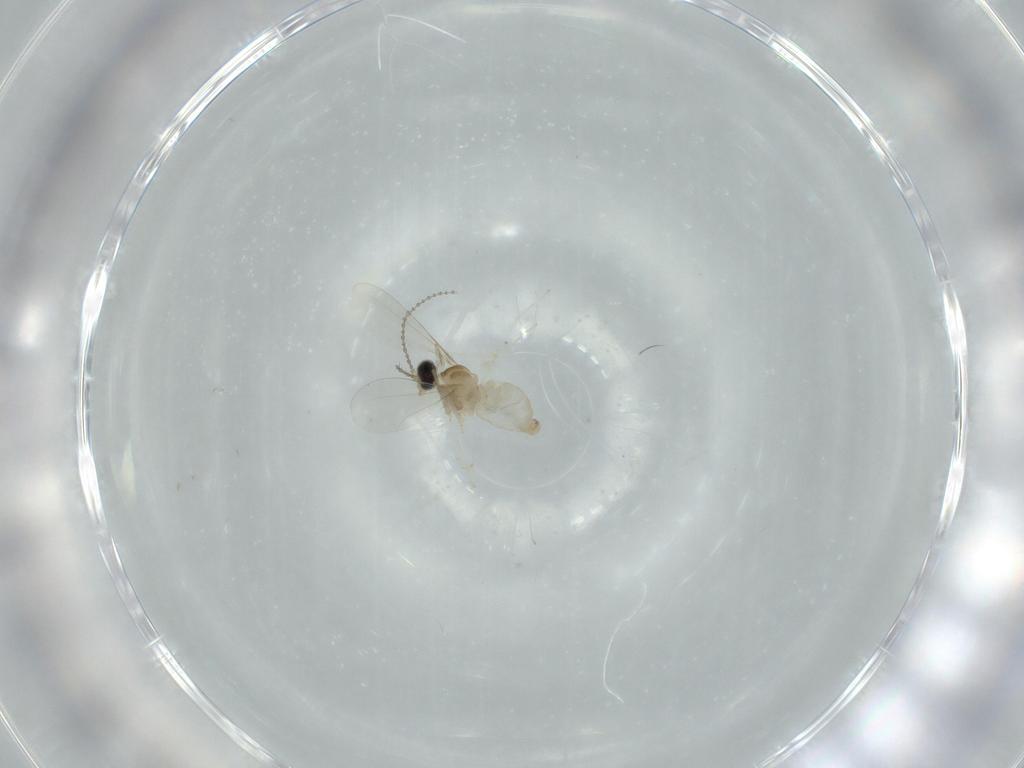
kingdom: Animalia
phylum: Arthropoda
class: Insecta
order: Diptera
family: Cecidomyiidae
